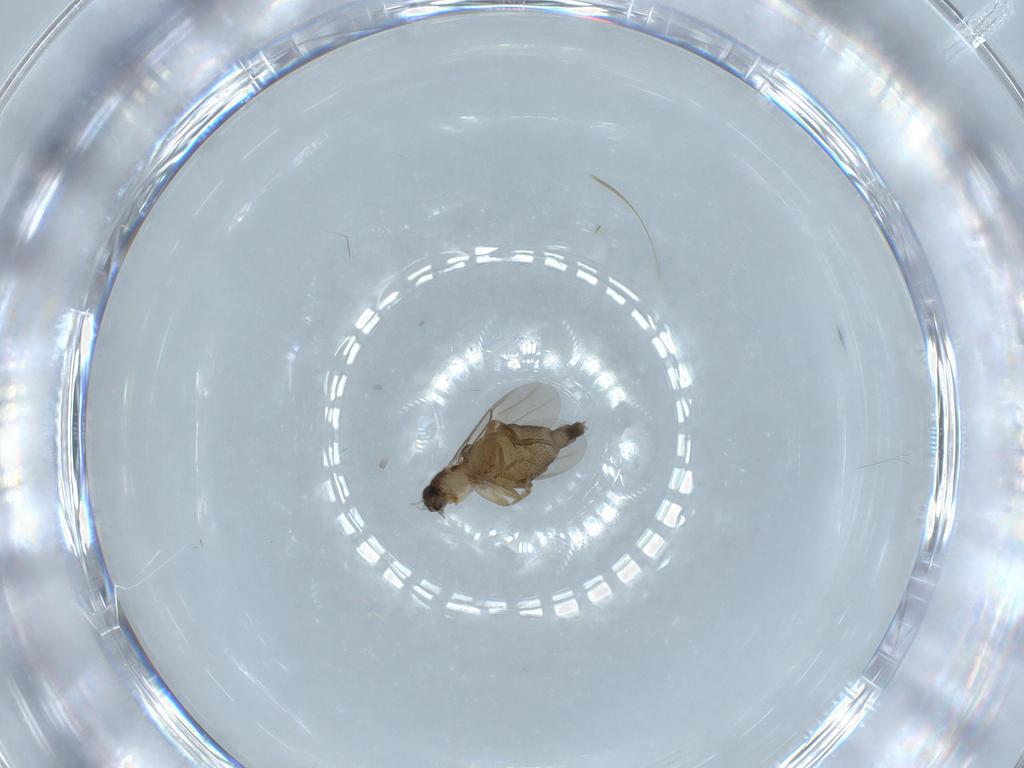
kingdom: Animalia
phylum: Arthropoda
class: Insecta
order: Diptera
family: Phoridae
